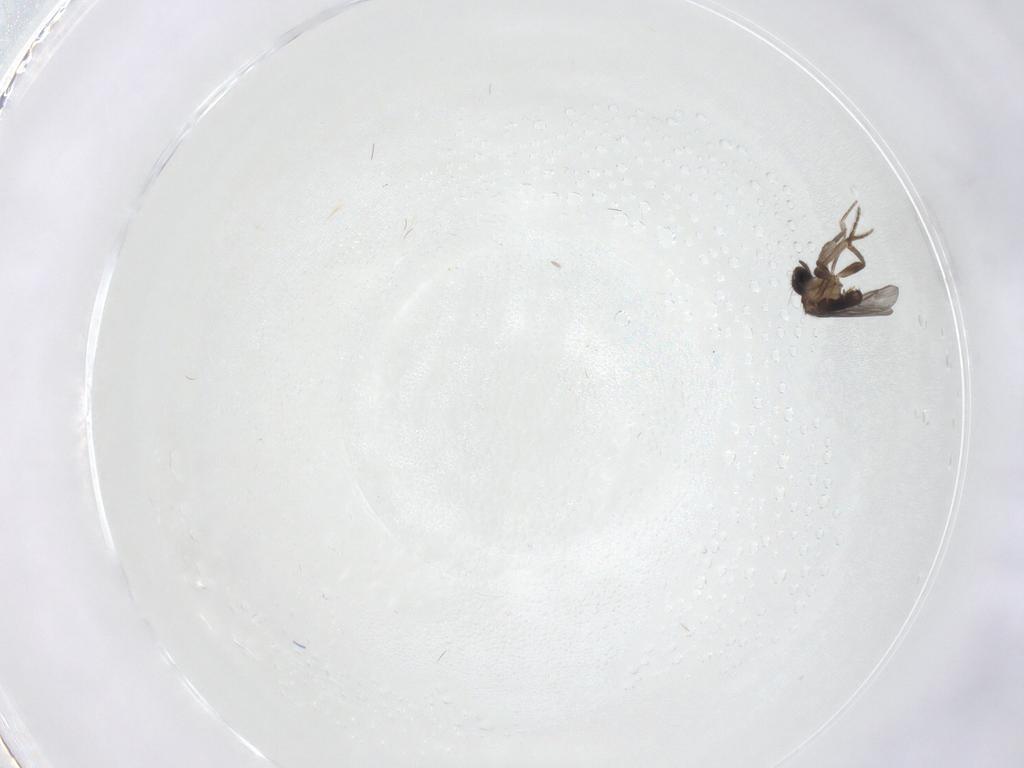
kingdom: Animalia
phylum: Arthropoda
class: Insecta
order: Diptera
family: Cecidomyiidae
